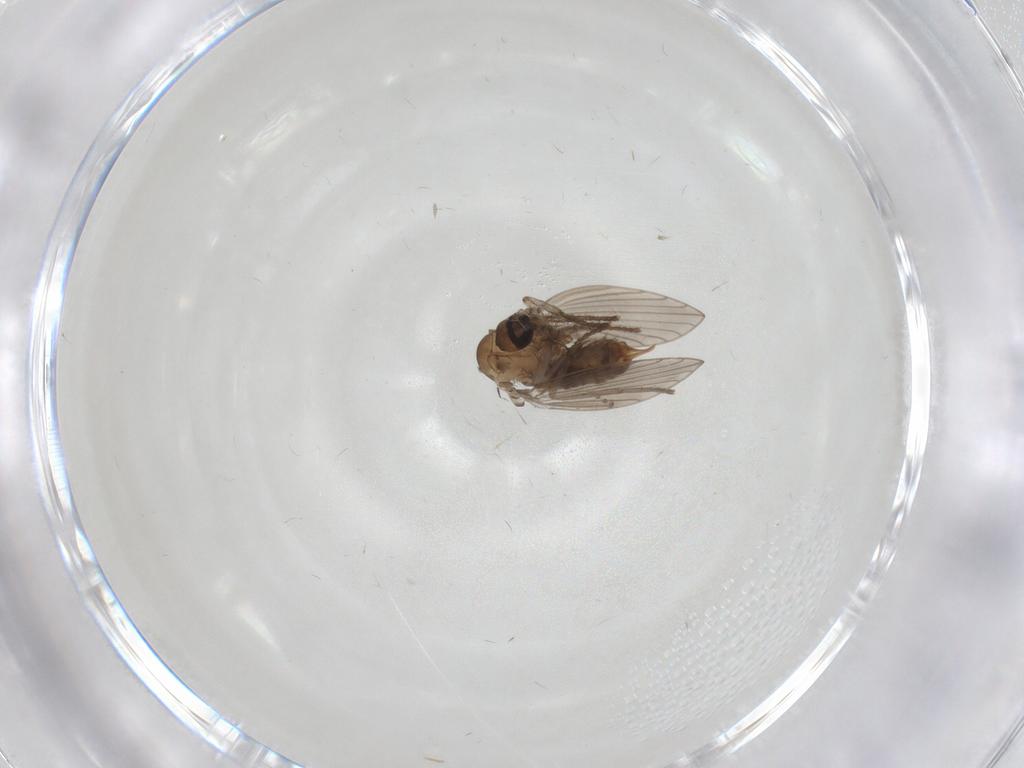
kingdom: Animalia
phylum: Arthropoda
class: Insecta
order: Diptera
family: Psychodidae
